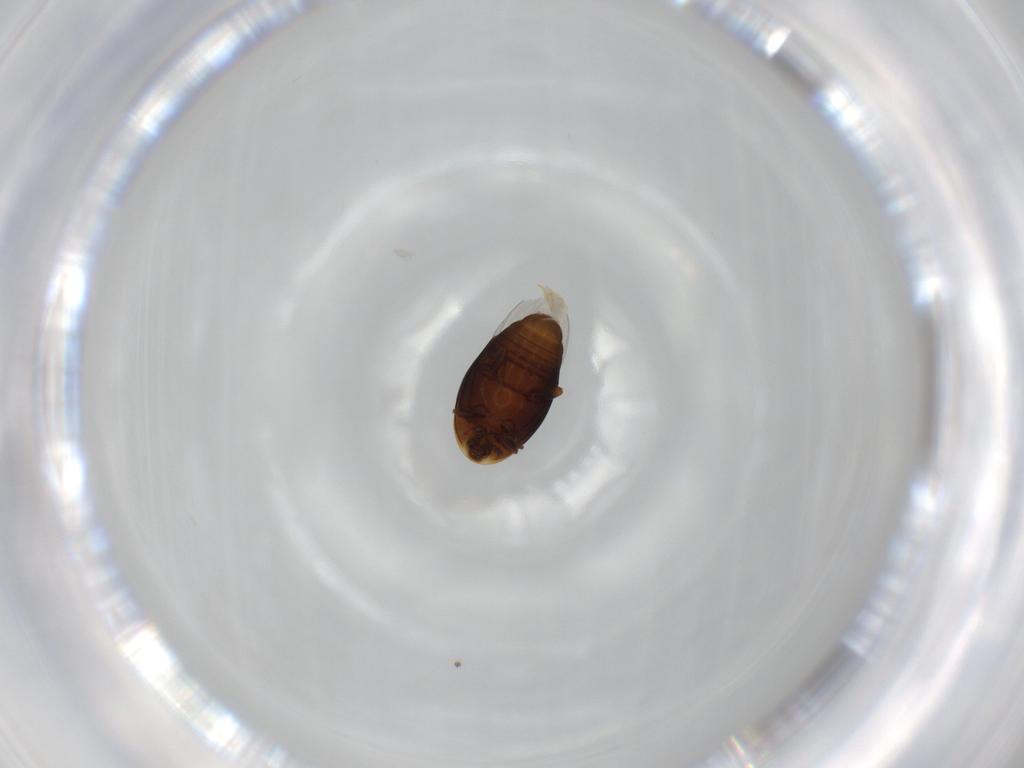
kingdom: Animalia
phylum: Arthropoda
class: Insecta
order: Coleoptera
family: Corylophidae
